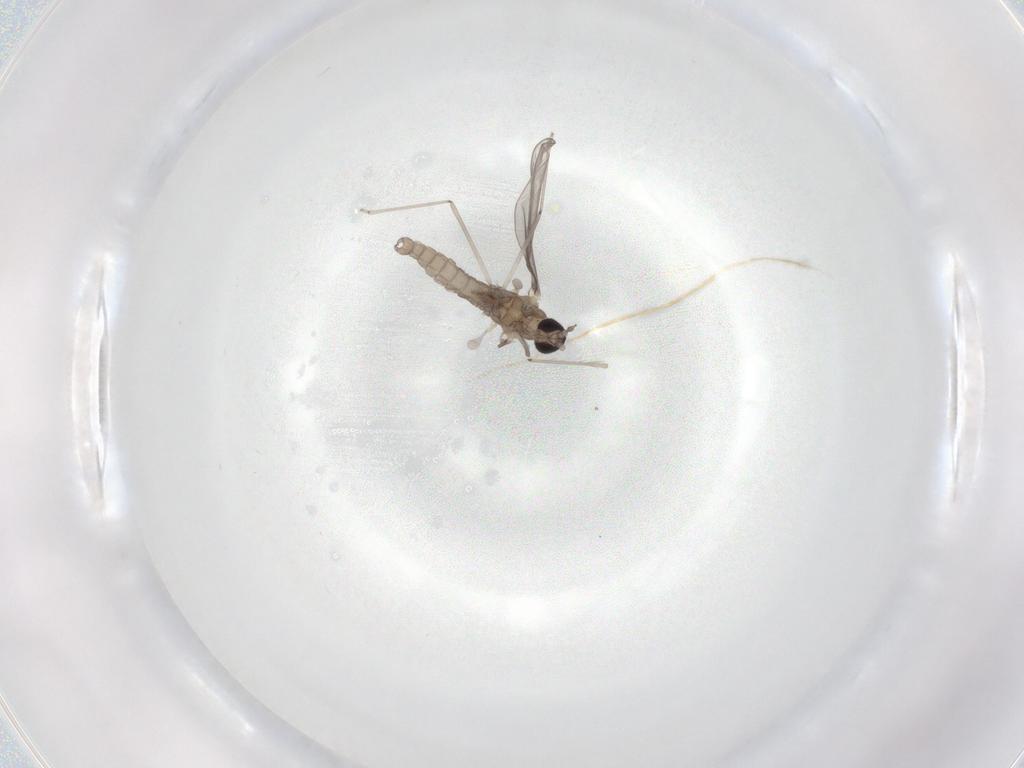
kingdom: Animalia
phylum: Arthropoda
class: Insecta
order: Diptera
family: Cecidomyiidae
